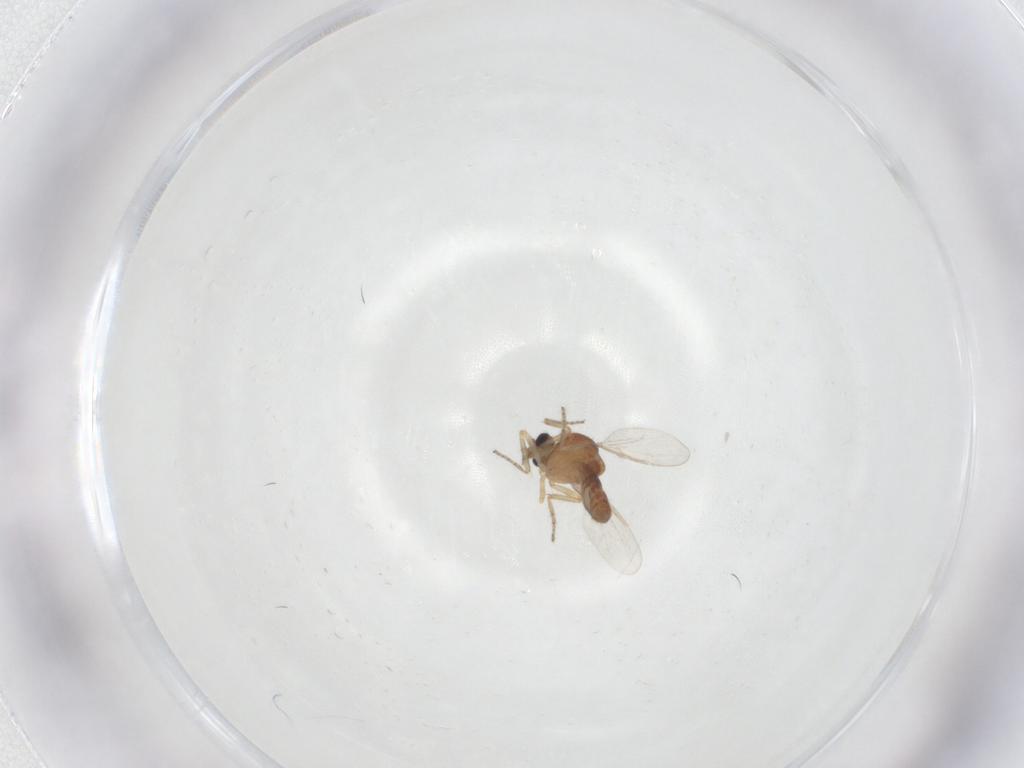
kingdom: Animalia
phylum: Arthropoda
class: Insecta
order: Diptera
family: Ceratopogonidae
